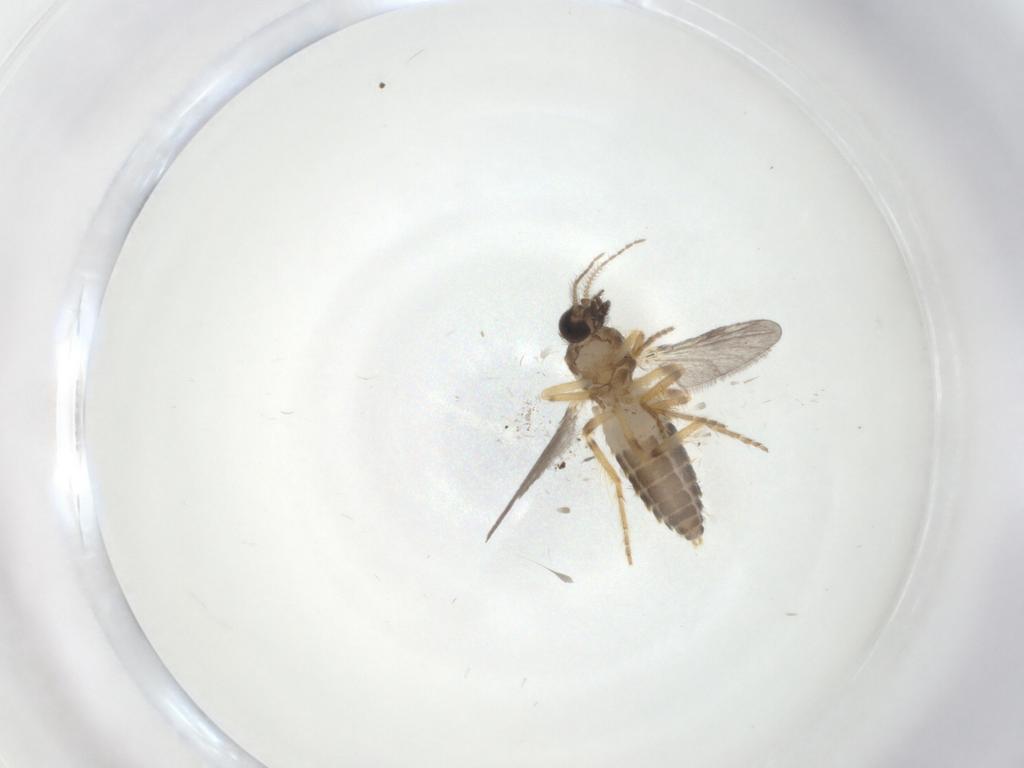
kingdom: Animalia
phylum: Arthropoda
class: Insecta
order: Diptera
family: Ceratopogonidae
